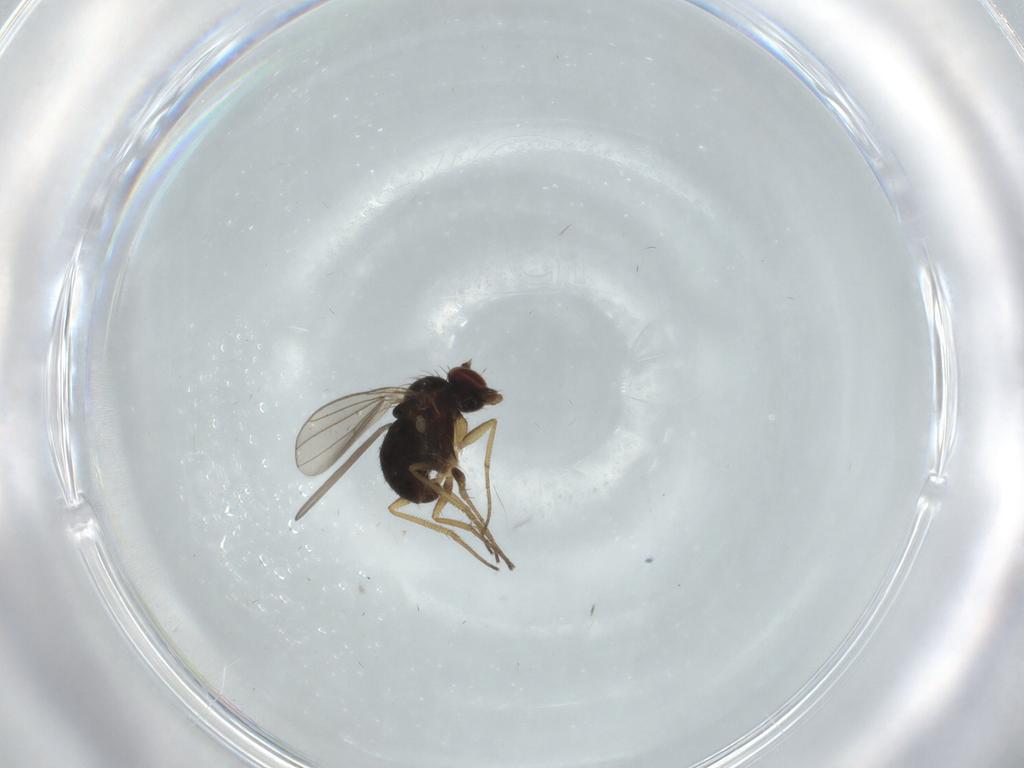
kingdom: Animalia
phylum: Arthropoda
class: Insecta
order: Diptera
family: Dolichopodidae
